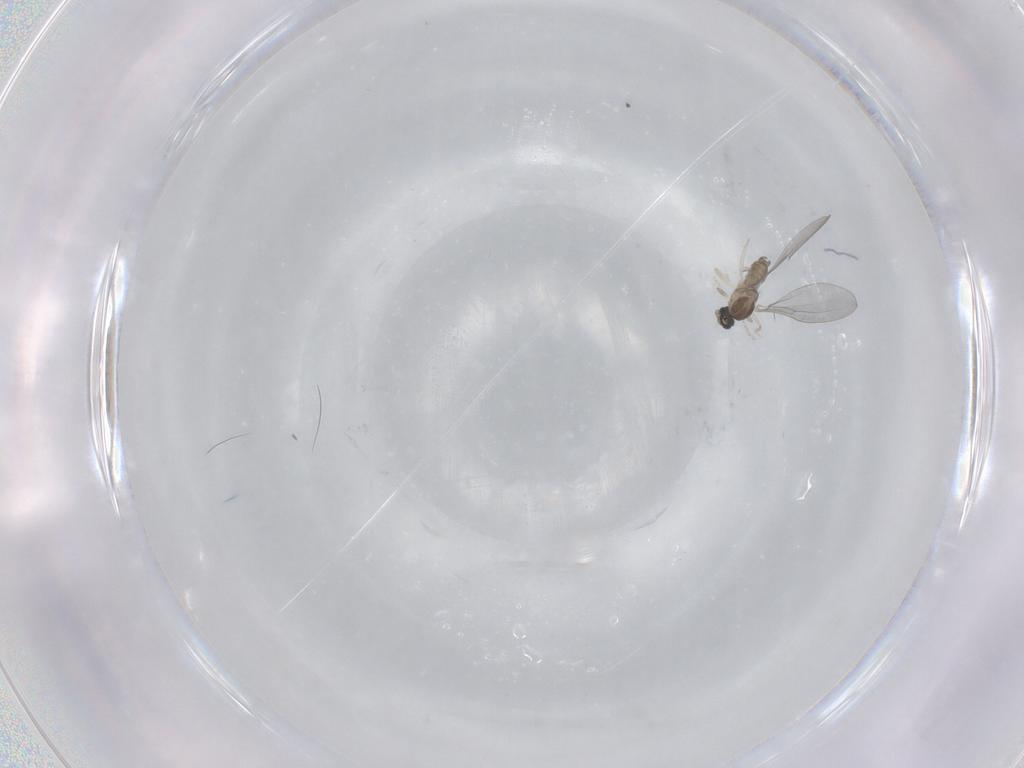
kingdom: Animalia
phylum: Arthropoda
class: Insecta
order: Diptera
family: Cecidomyiidae
